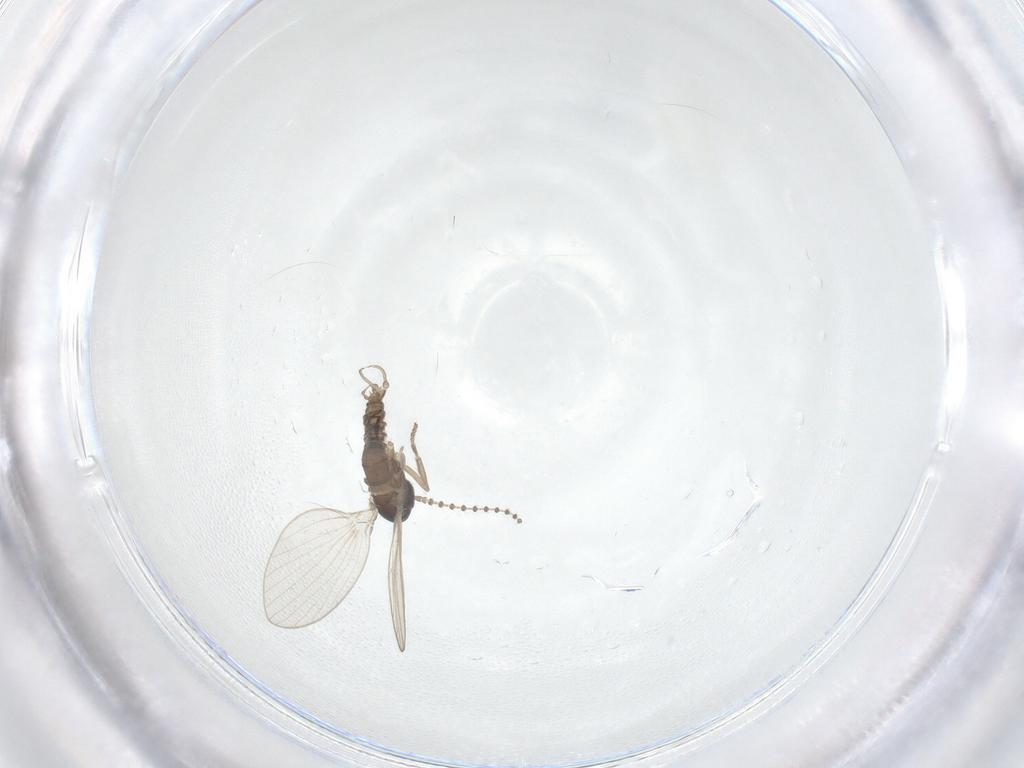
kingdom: Animalia
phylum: Arthropoda
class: Insecta
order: Diptera
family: Psychodidae
